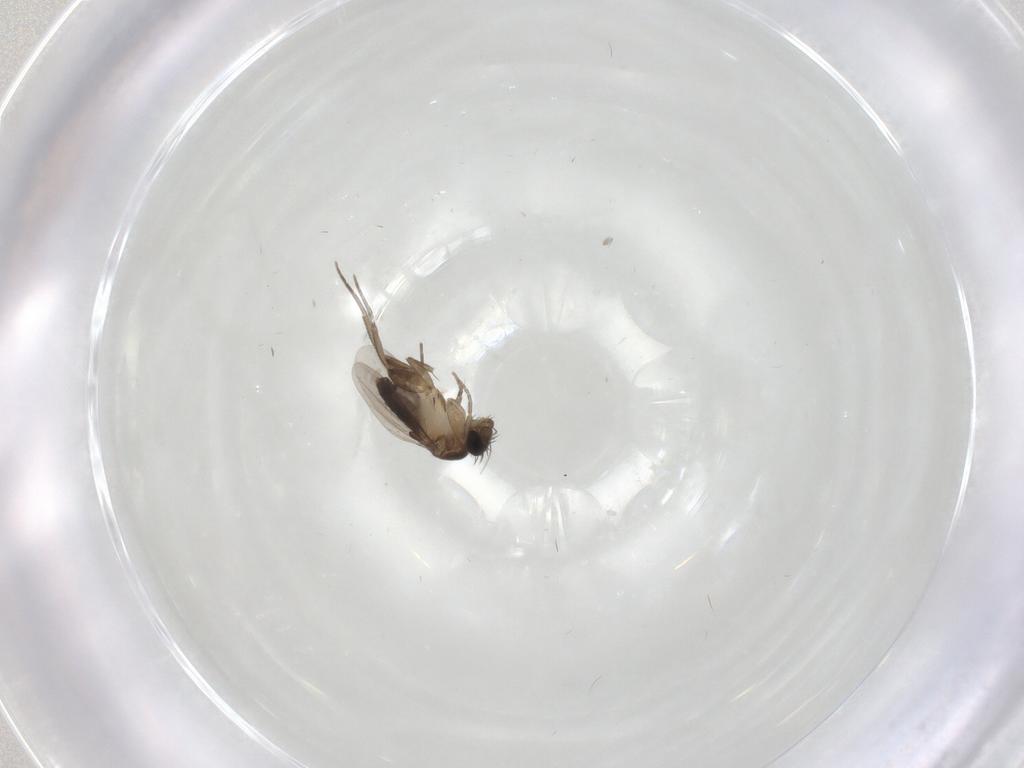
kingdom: Animalia
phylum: Arthropoda
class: Insecta
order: Diptera
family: Phoridae
